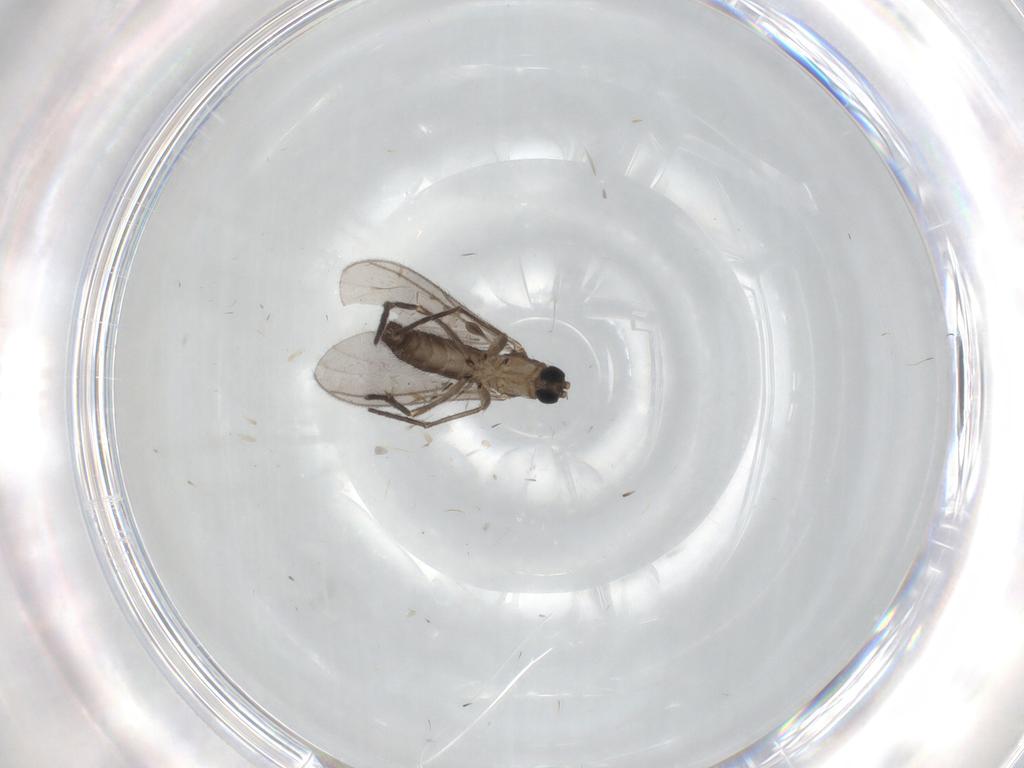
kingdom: Animalia
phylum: Arthropoda
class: Insecta
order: Diptera
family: Sciaridae
